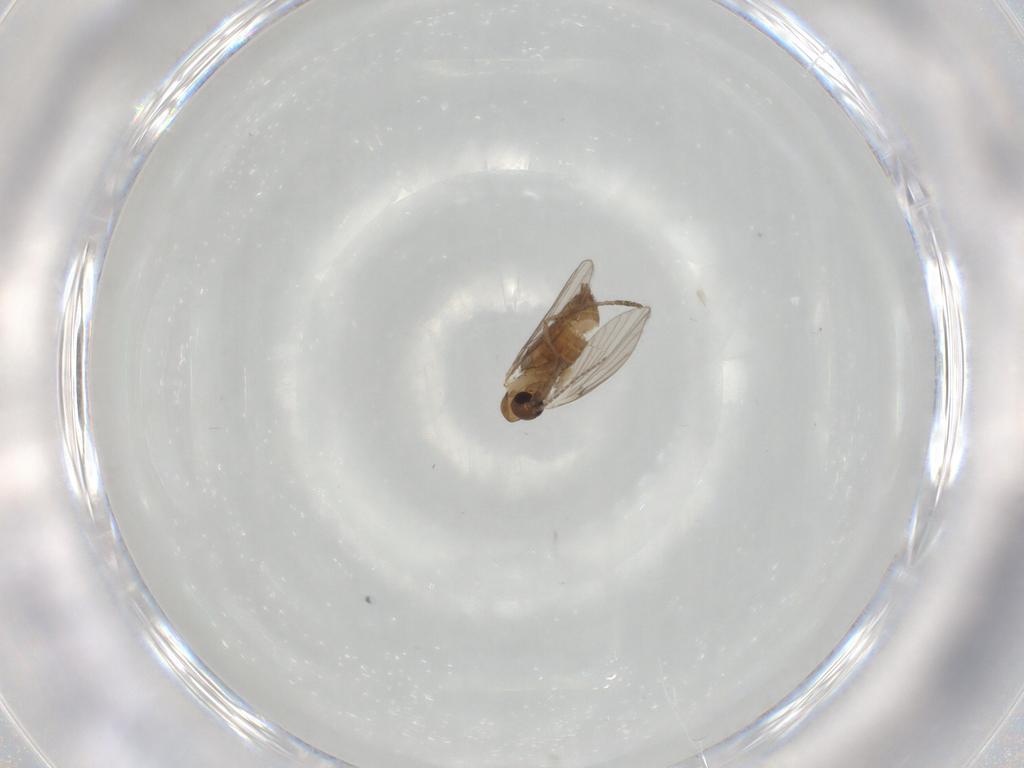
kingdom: Animalia
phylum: Arthropoda
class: Insecta
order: Diptera
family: Psychodidae
